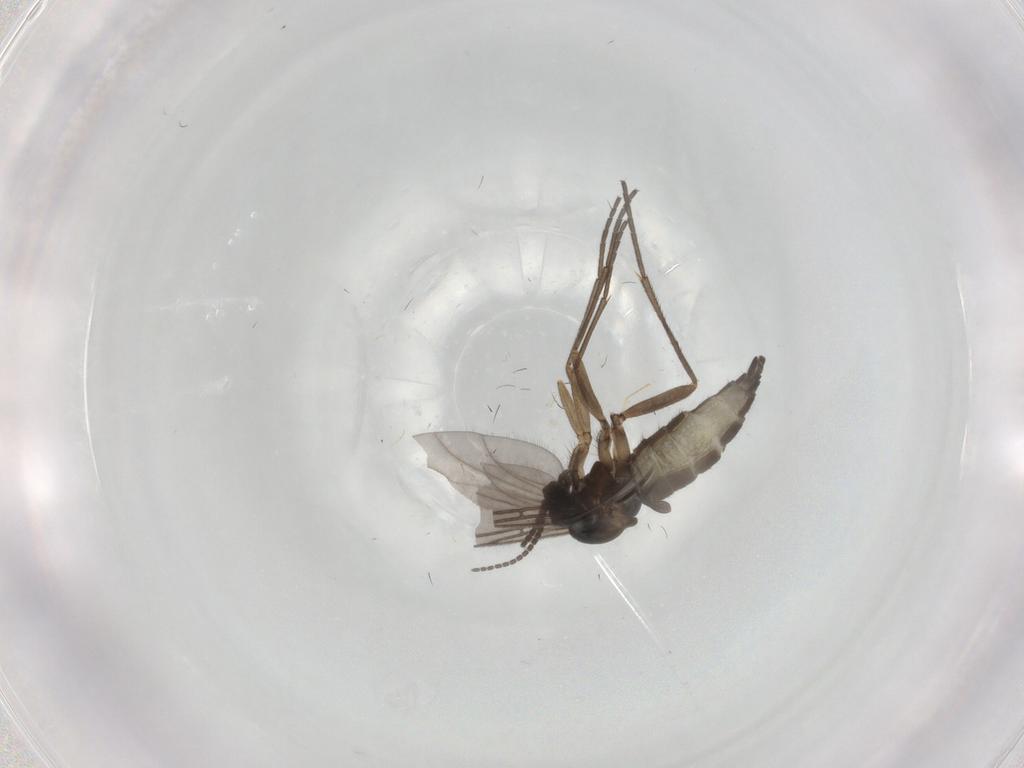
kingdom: Animalia
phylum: Arthropoda
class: Insecta
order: Diptera
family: Sciaridae
